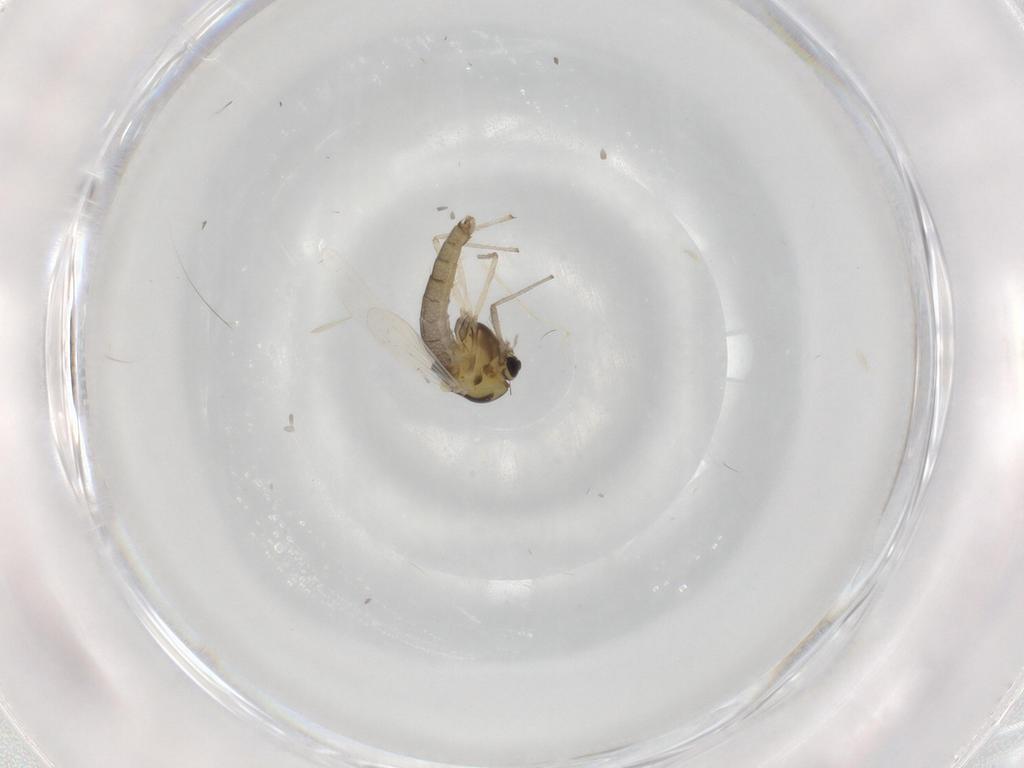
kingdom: Animalia
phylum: Arthropoda
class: Insecta
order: Diptera
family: Chironomidae
